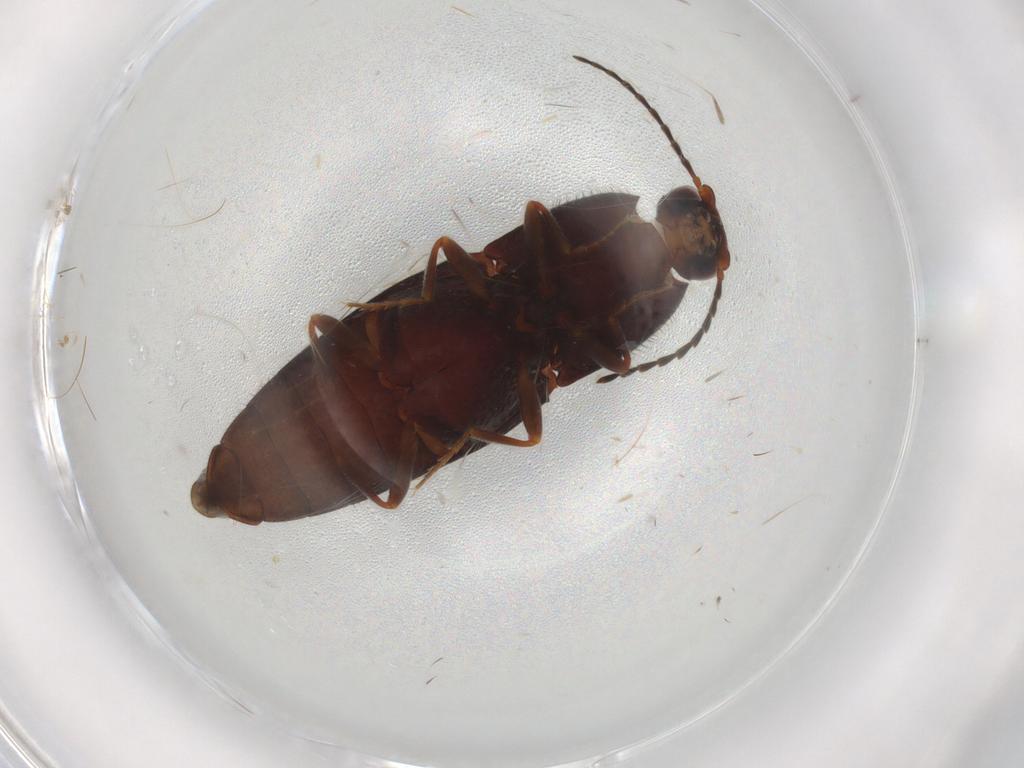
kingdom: Animalia
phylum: Arthropoda
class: Insecta
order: Coleoptera
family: Elateridae
